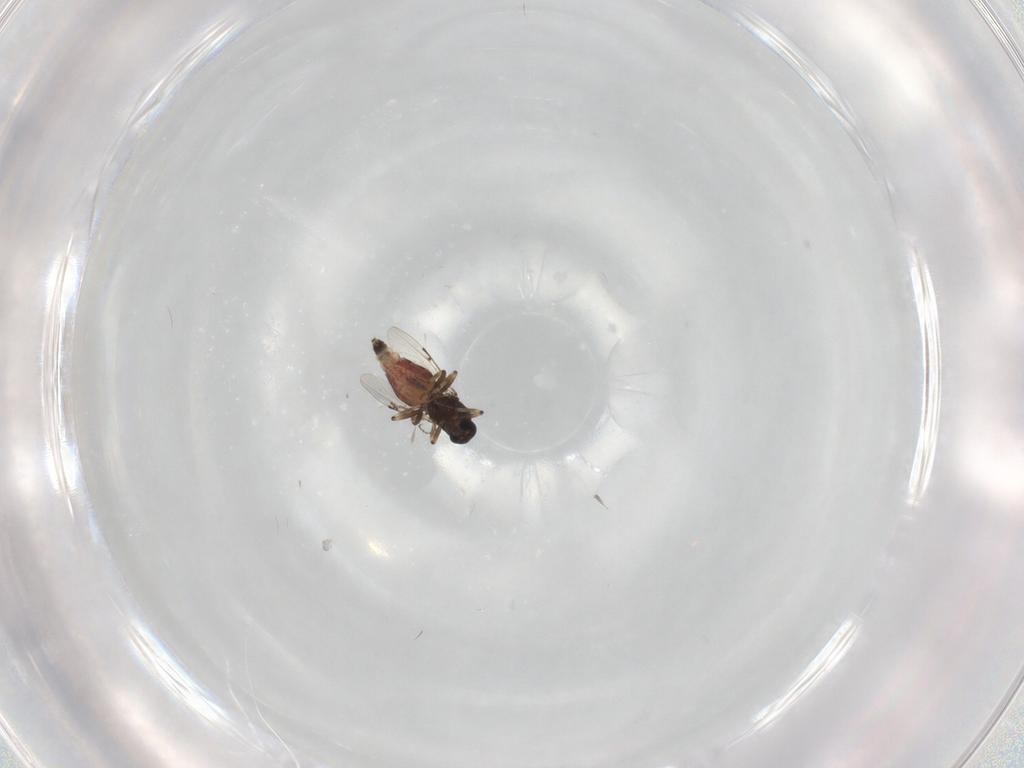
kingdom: Animalia
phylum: Arthropoda
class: Insecta
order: Diptera
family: Ceratopogonidae
